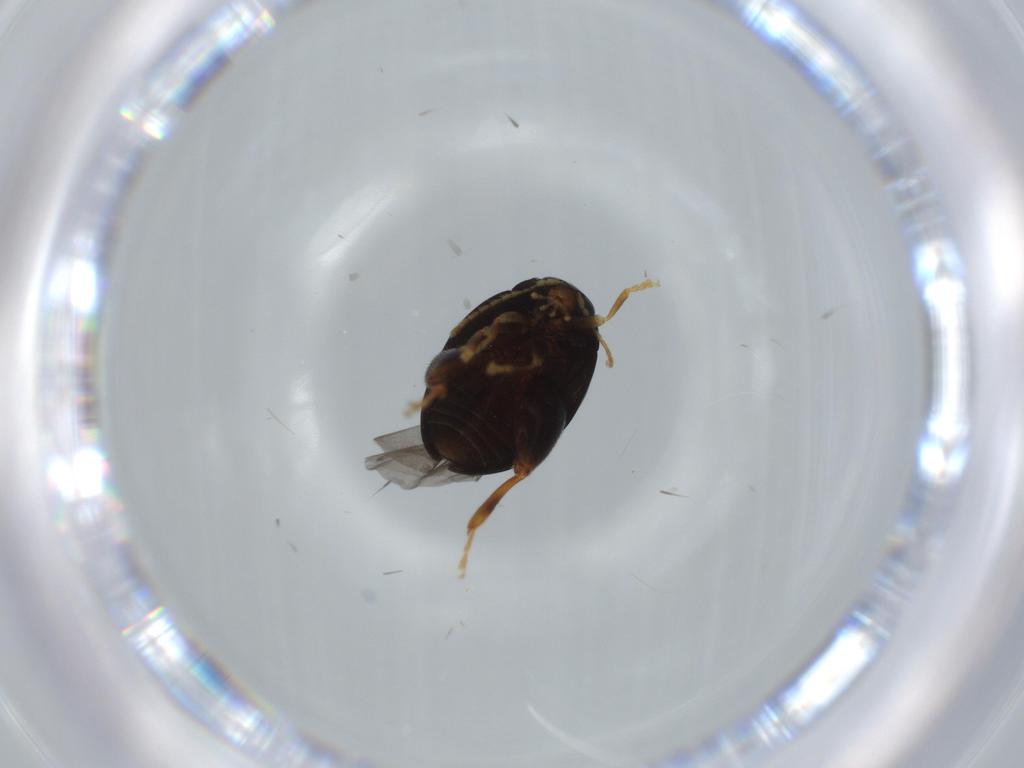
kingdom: Animalia
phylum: Arthropoda
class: Insecta
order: Coleoptera
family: Chrysomelidae
